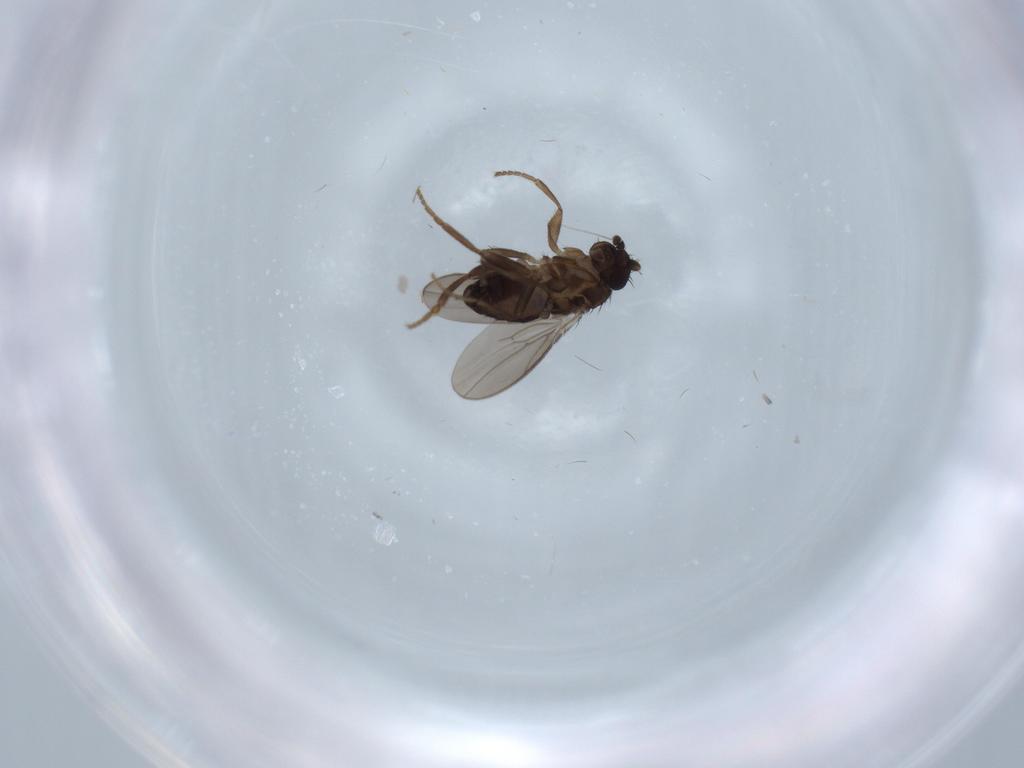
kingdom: Animalia
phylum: Arthropoda
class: Insecta
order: Diptera
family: Sphaeroceridae
